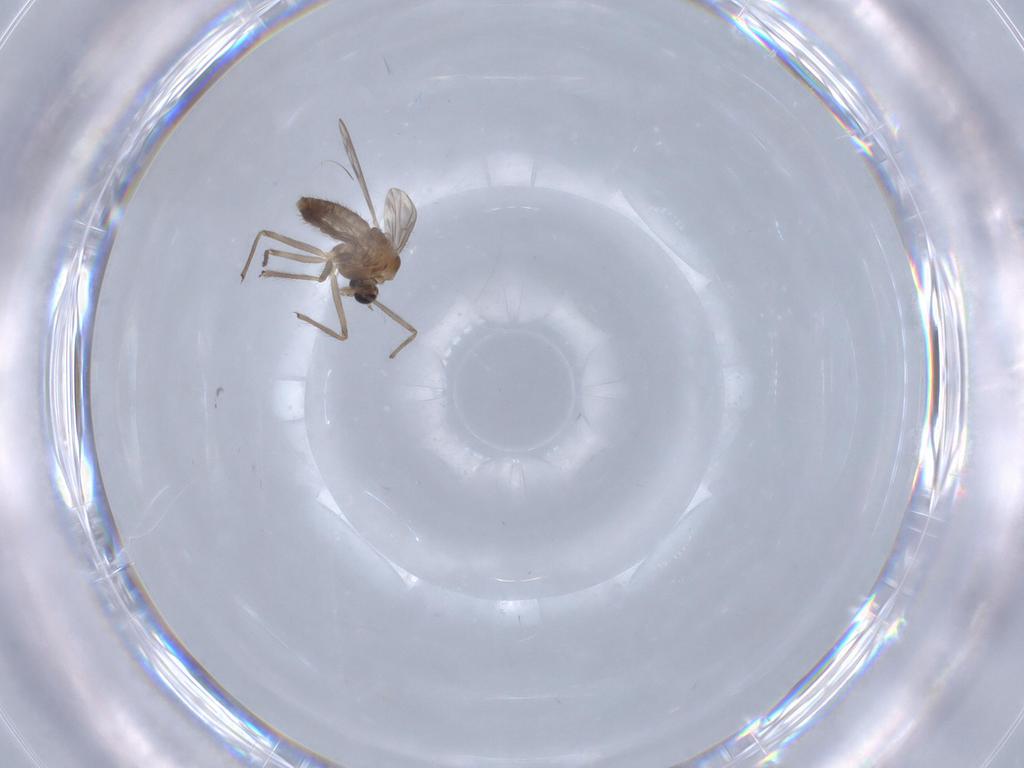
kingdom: Animalia
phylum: Arthropoda
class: Insecta
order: Diptera
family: Chironomidae
